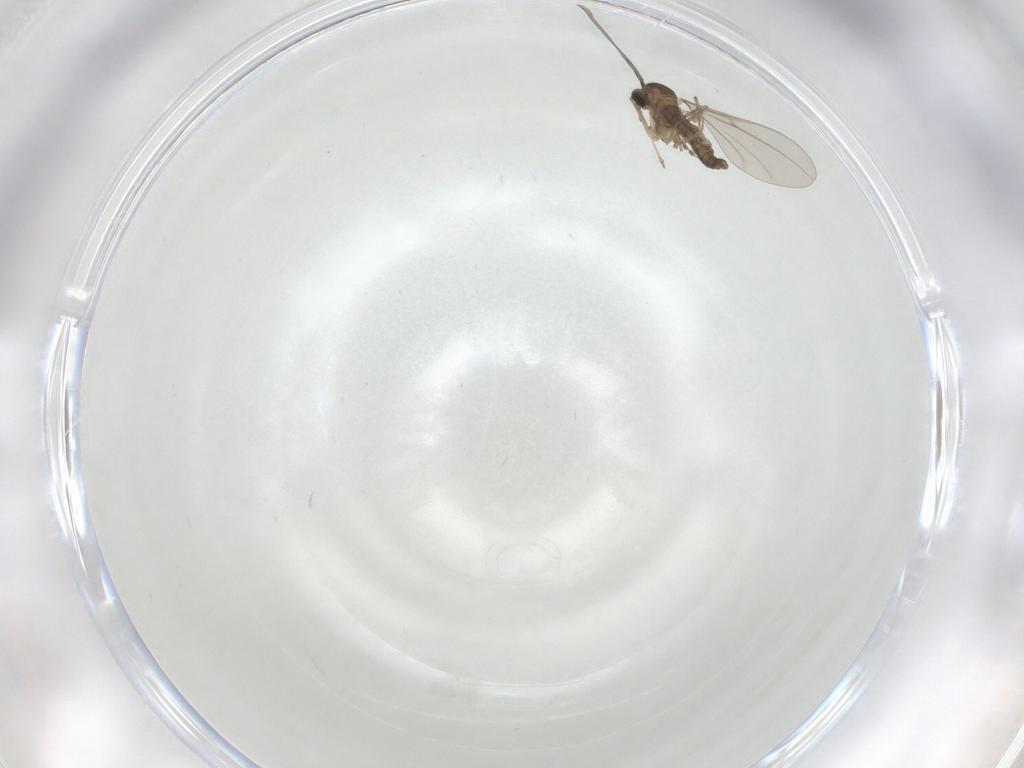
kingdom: Animalia
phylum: Arthropoda
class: Insecta
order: Diptera
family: Cecidomyiidae
